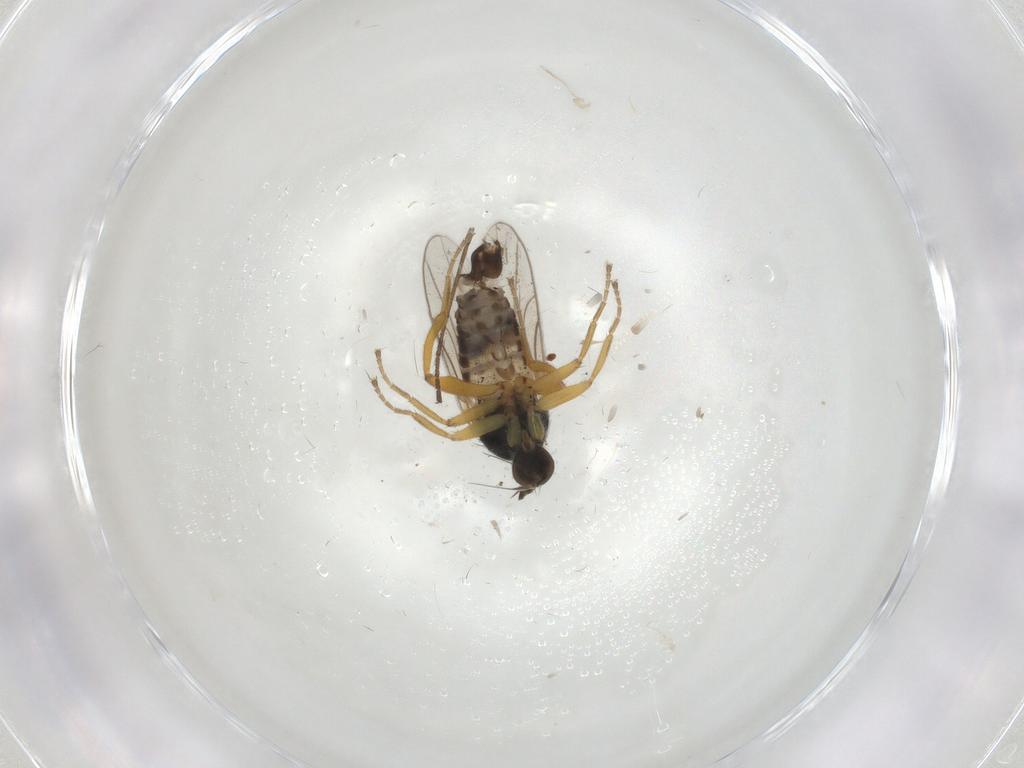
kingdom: Animalia
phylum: Arthropoda
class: Insecta
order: Diptera
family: Hybotidae
